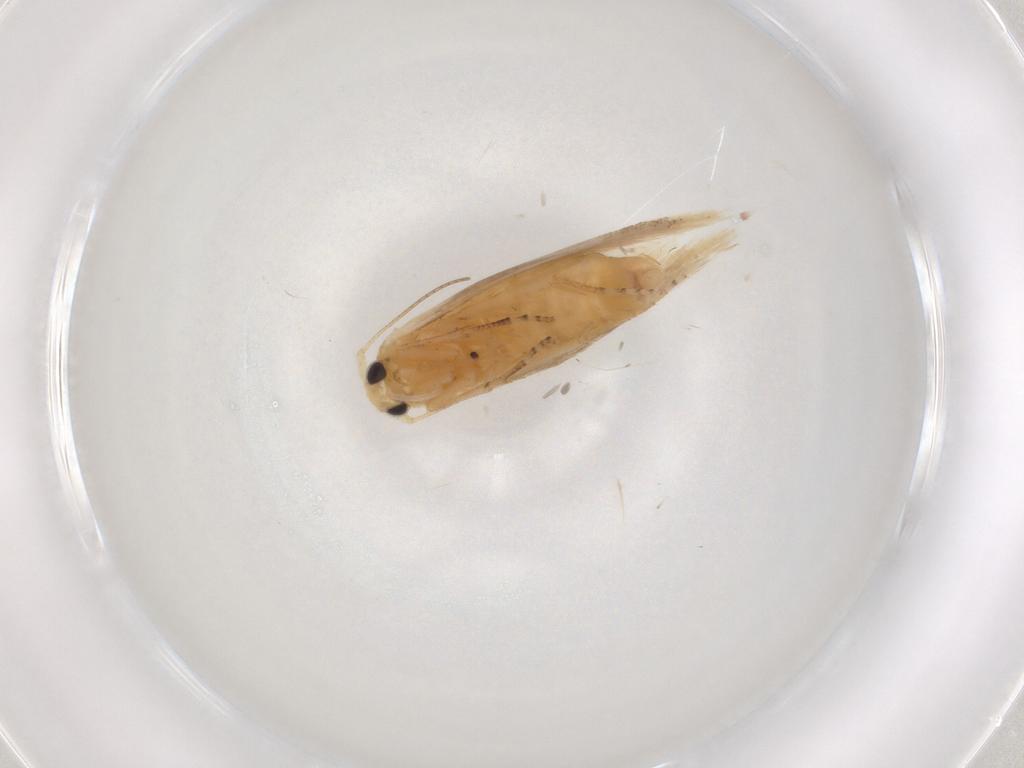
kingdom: Animalia
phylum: Arthropoda
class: Insecta
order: Lepidoptera
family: Bucculatricidae
